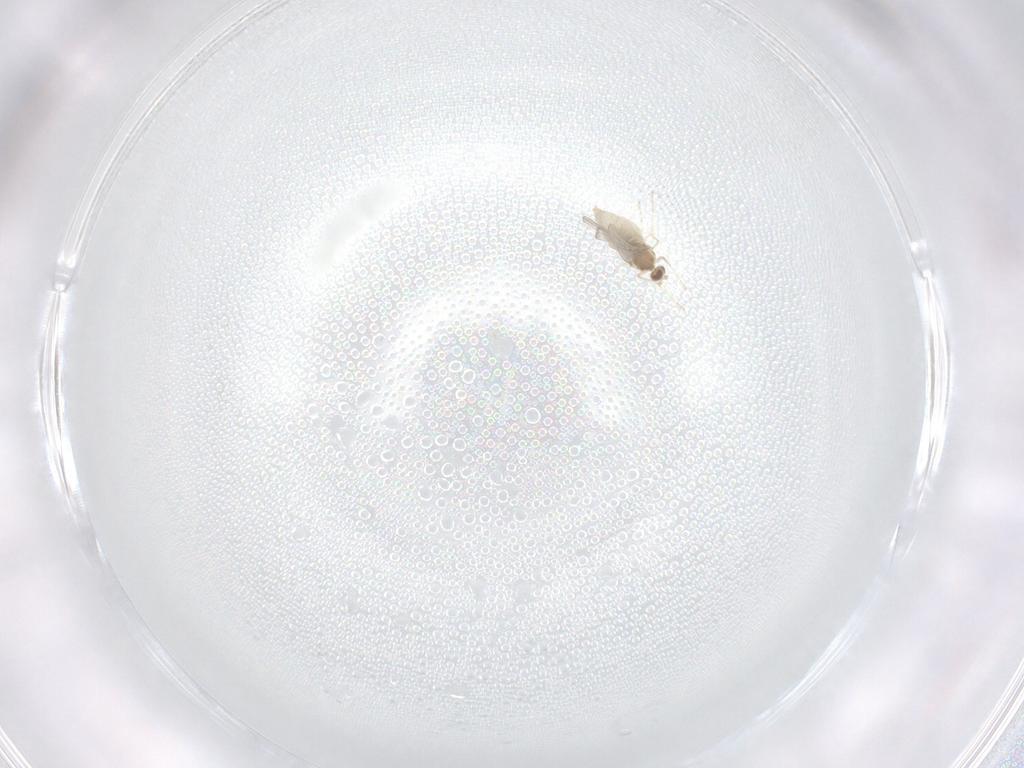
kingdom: Animalia
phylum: Arthropoda
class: Insecta
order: Diptera
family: Cecidomyiidae
